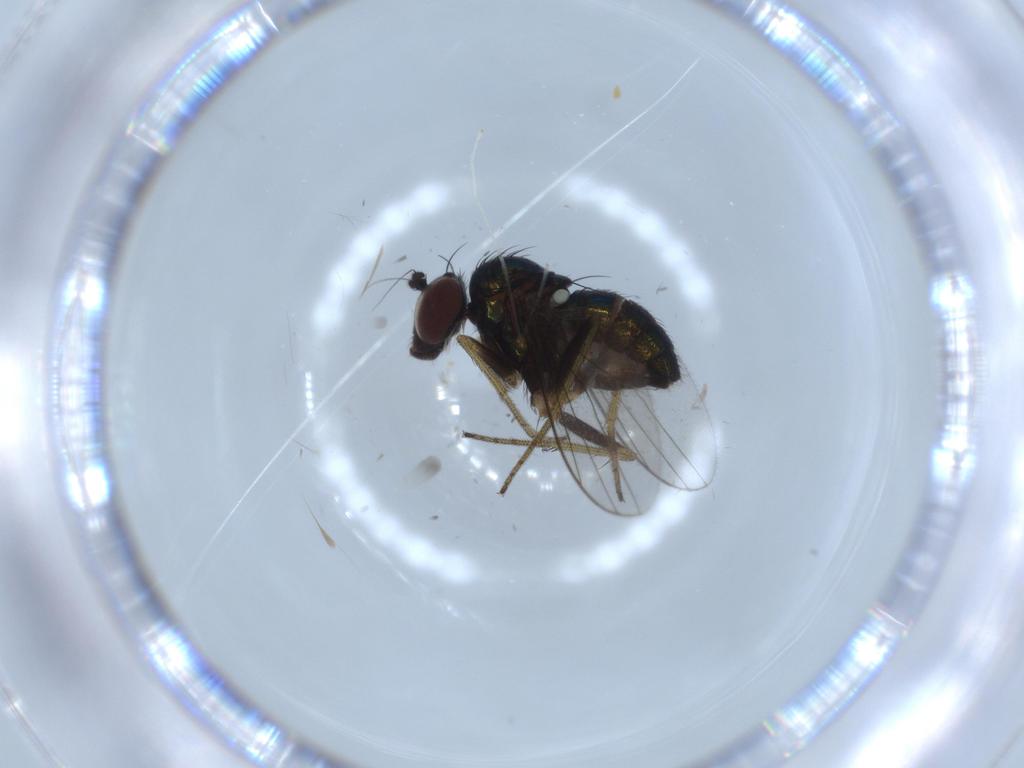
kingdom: Animalia
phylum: Arthropoda
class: Insecta
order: Diptera
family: Dolichopodidae
